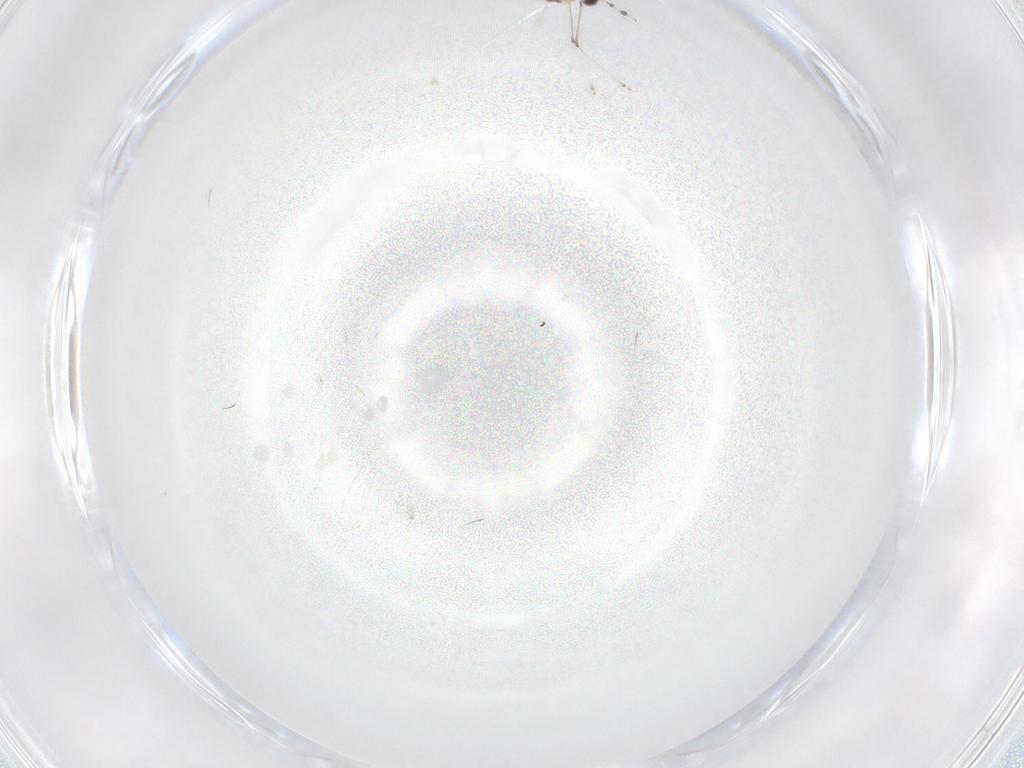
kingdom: Animalia
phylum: Arthropoda
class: Insecta
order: Diptera
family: Cecidomyiidae
